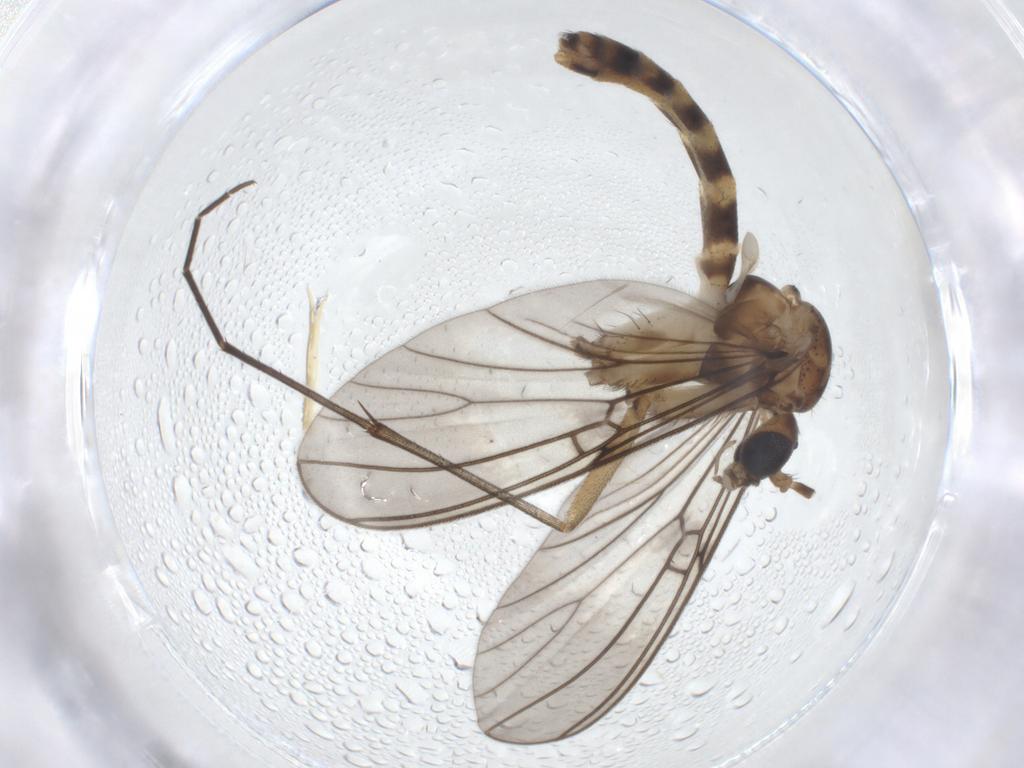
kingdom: Animalia
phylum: Arthropoda
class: Insecta
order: Diptera
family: Mycetophilidae
